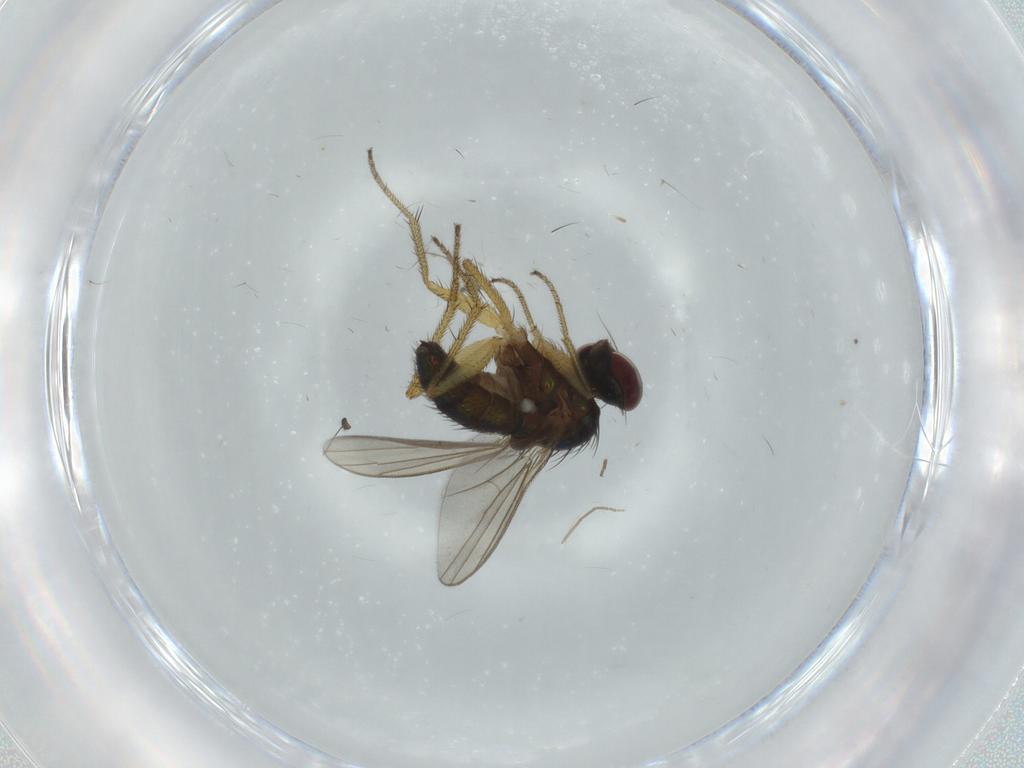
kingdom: Animalia
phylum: Arthropoda
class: Insecta
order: Diptera
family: Dolichopodidae
